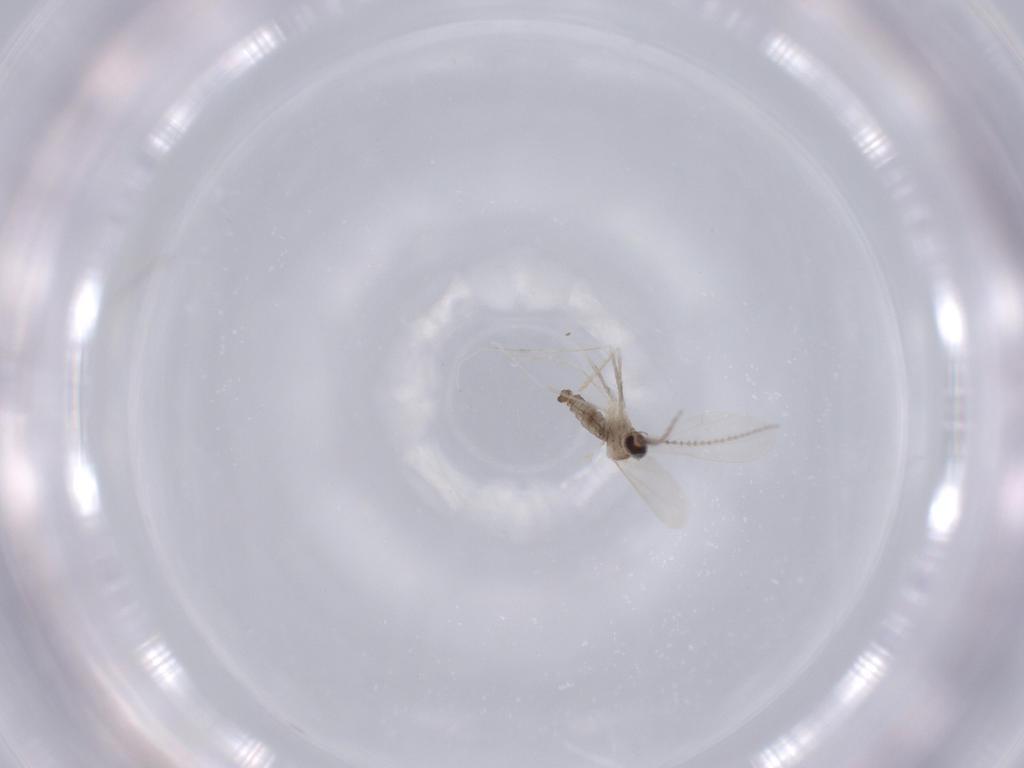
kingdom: Animalia
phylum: Arthropoda
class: Insecta
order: Diptera
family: Cecidomyiidae
